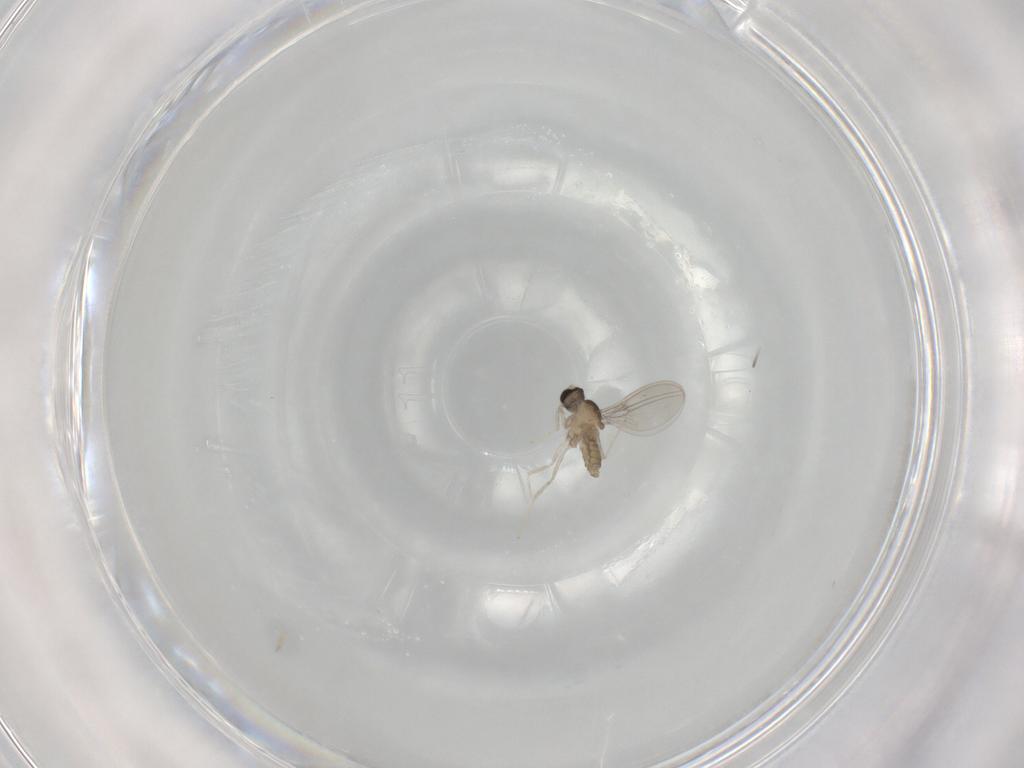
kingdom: Animalia
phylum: Arthropoda
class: Insecta
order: Diptera
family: Cecidomyiidae
